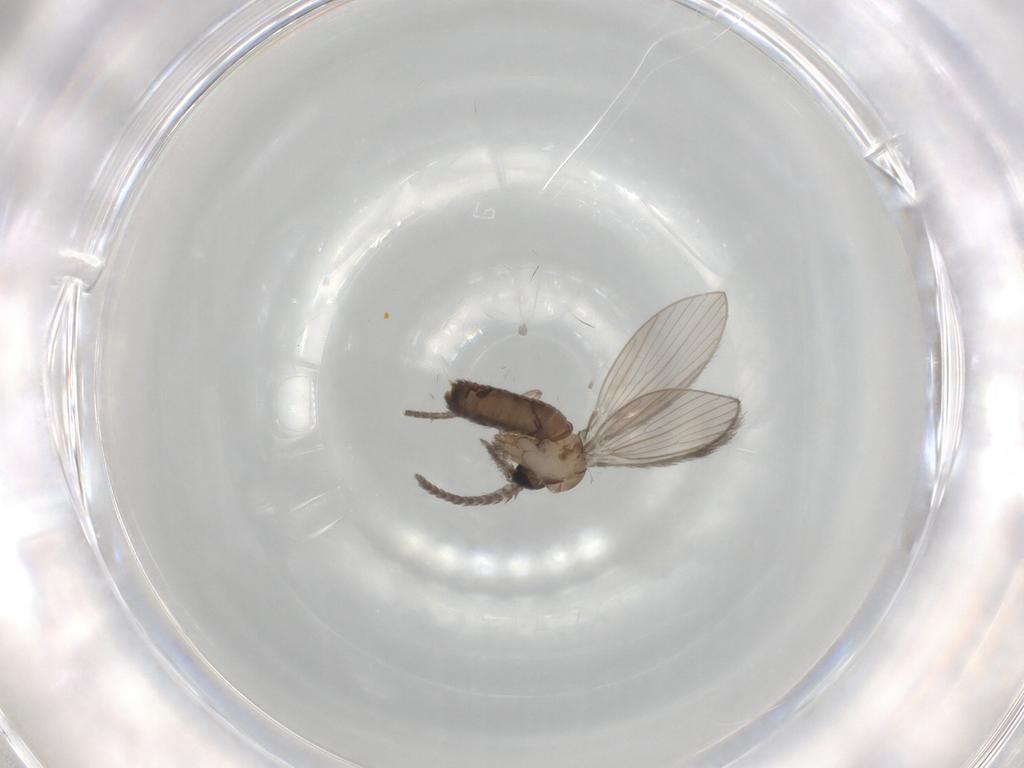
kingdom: Animalia
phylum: Arthropoda
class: Insecta
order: Diptera
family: Psychodidae
